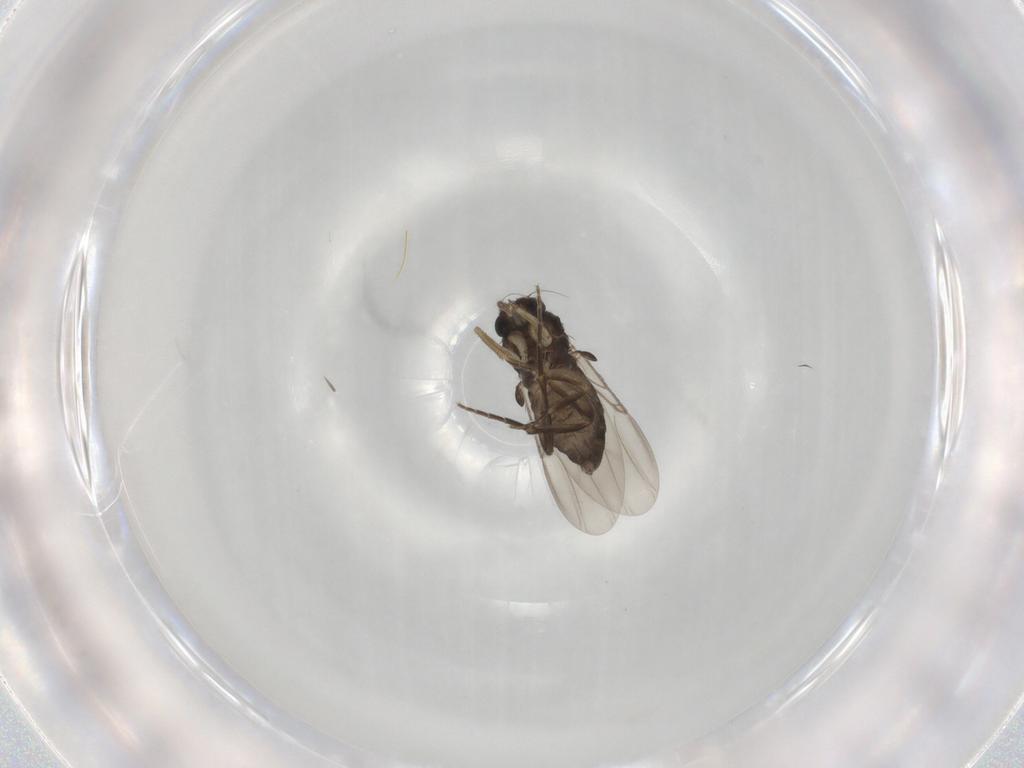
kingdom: Animalia
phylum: Arthropoda
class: Insecta
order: Diptera
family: Phoridae
